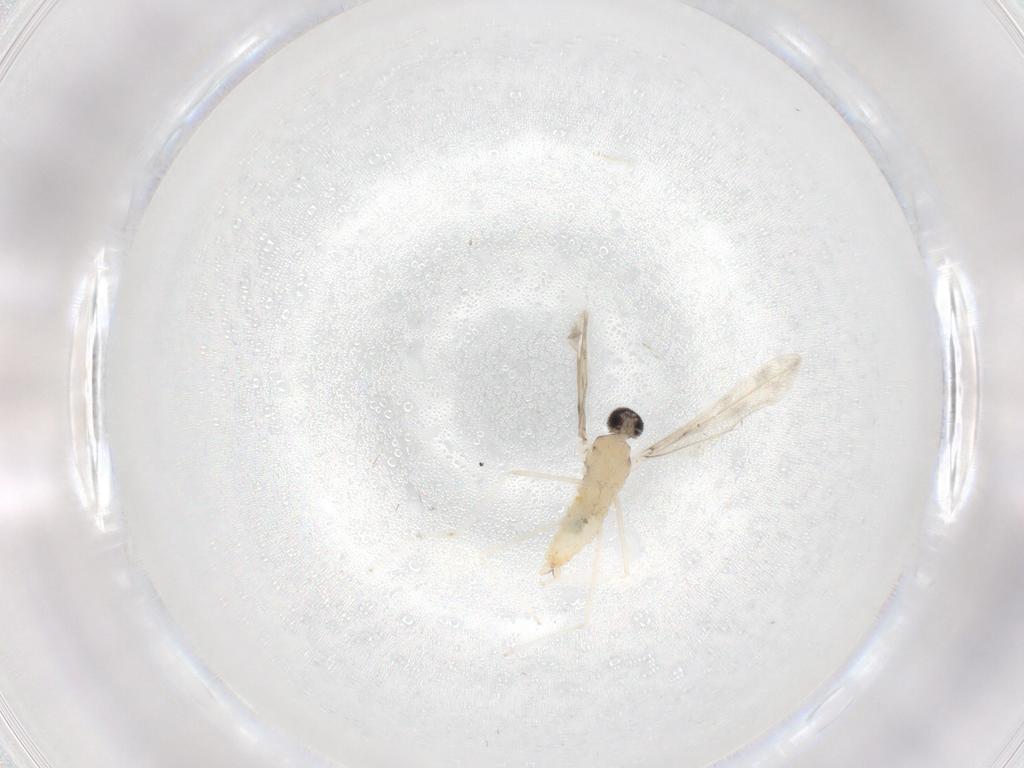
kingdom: Animalia
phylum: Arthropoda
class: Insecta
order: Diptera
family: Cecidomyiidae
